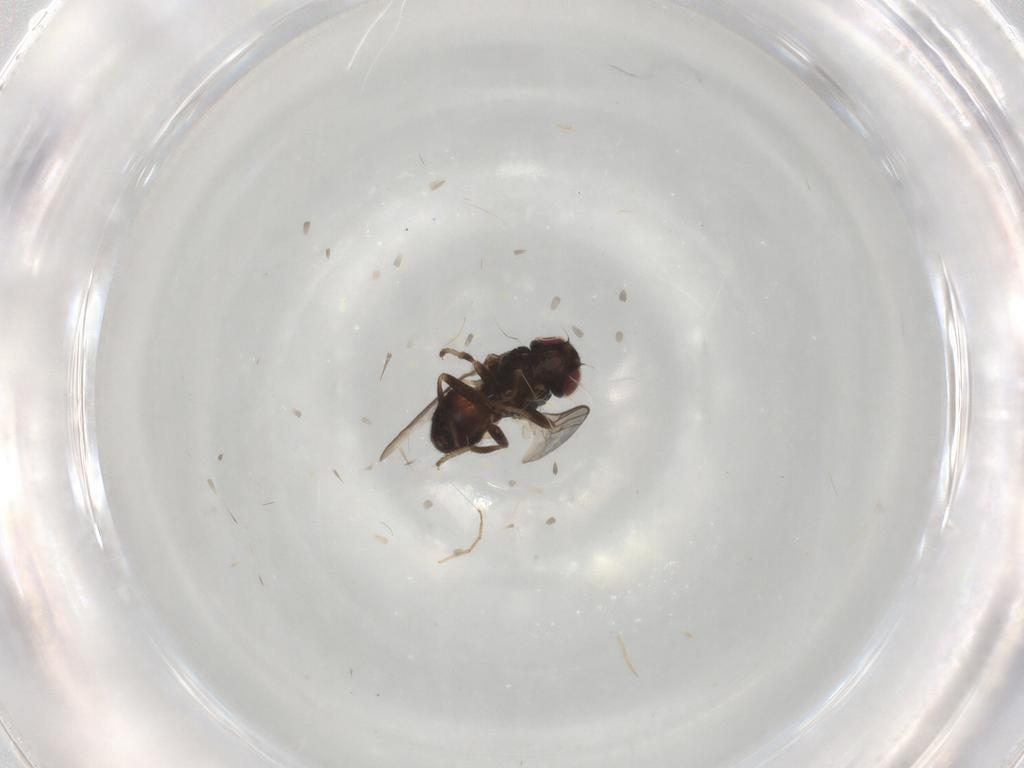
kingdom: Animalia
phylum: Arthropoda
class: Insecta
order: Diptera
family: Chloropidae
